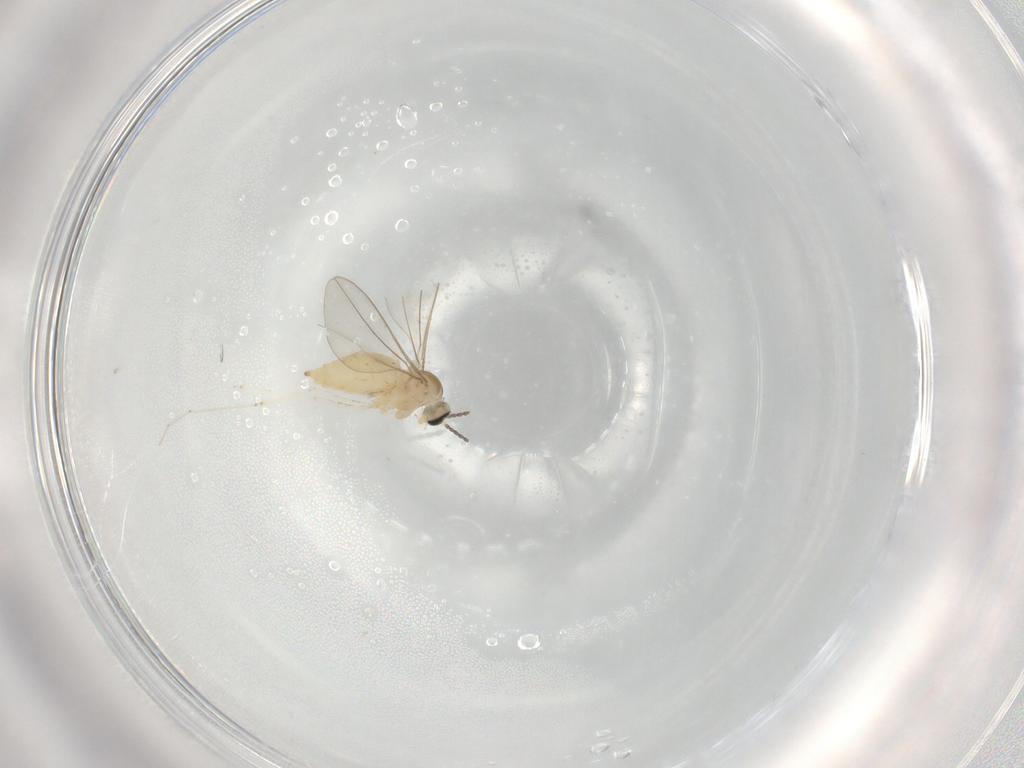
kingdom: Animalia
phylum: Arthropoda
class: Insecta
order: Diptera
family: Cecidomyiidae
